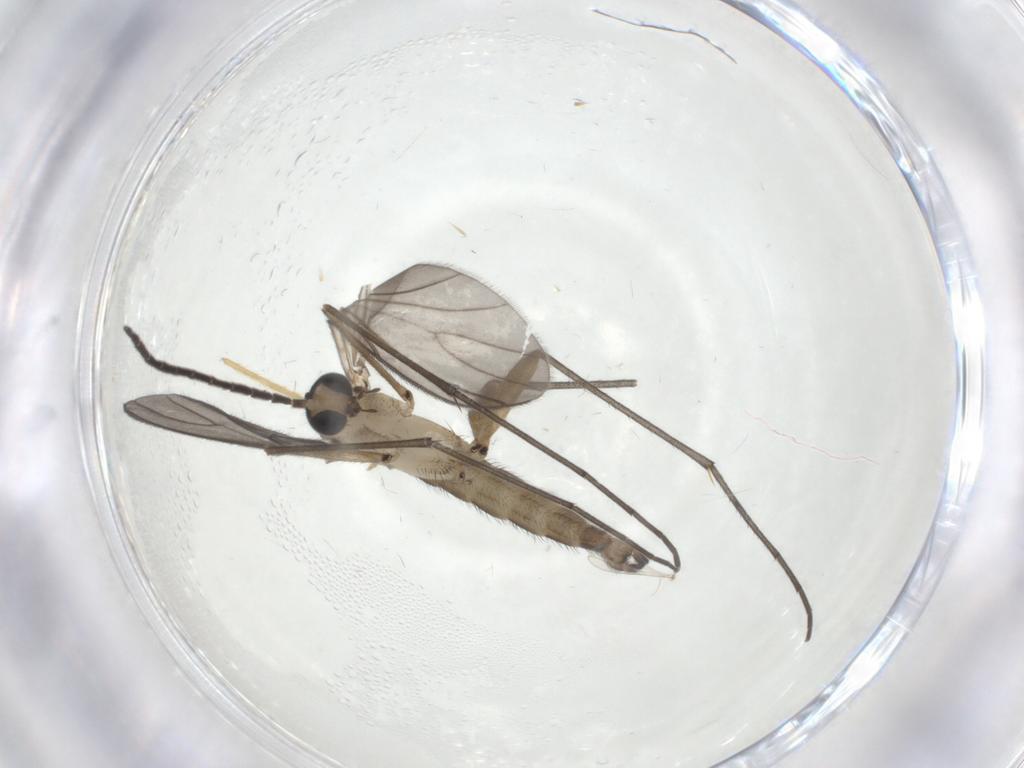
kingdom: Animalia
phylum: Arthropoda
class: Insecta
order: Diptera
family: Sciaridae
